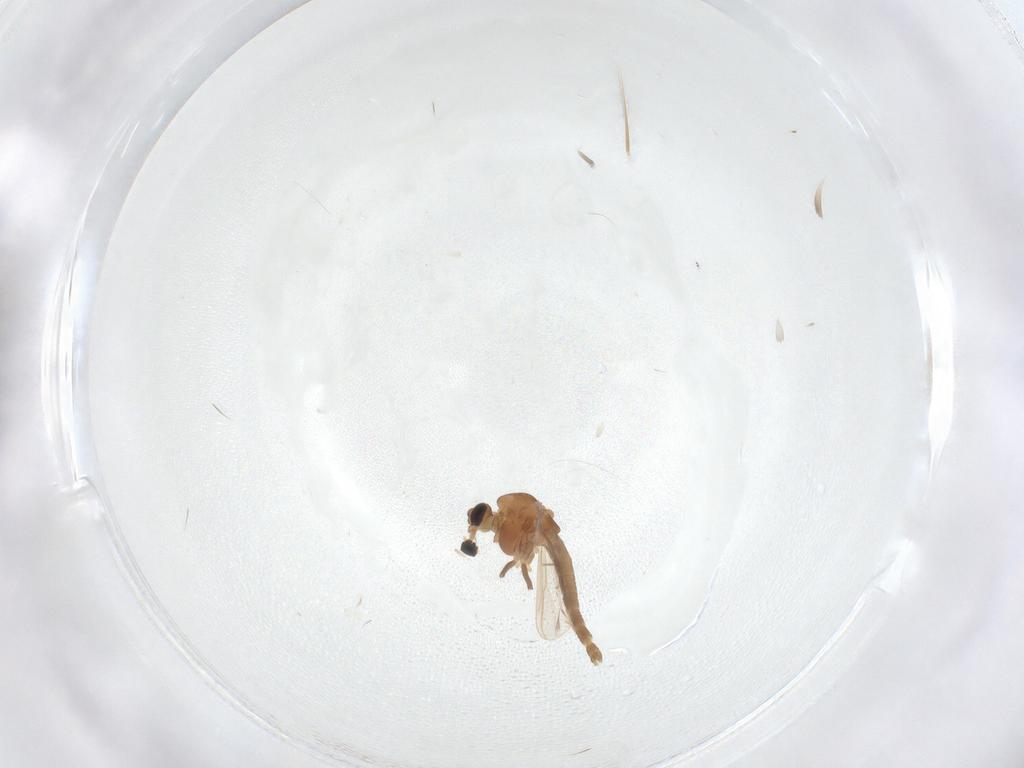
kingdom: Animalia
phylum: Arthropoda
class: Insecta
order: Diptera
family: Chironomidae
